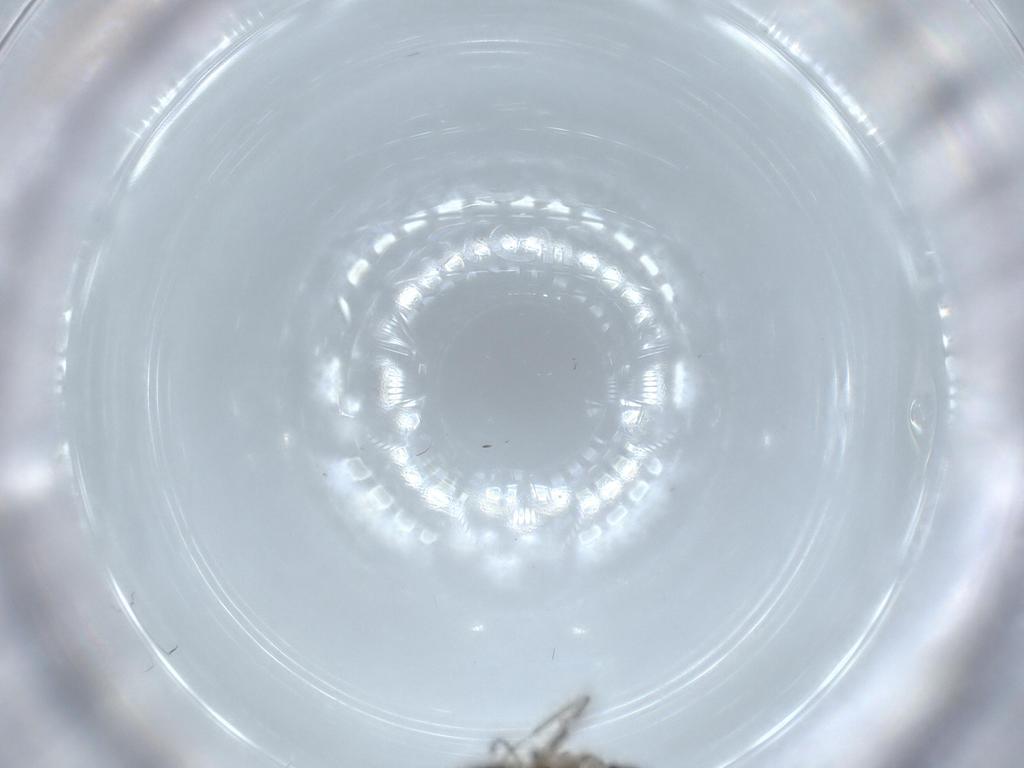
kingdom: Animalia
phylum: Arthropoda
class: Insecta
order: Diptera
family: Hybotidae
